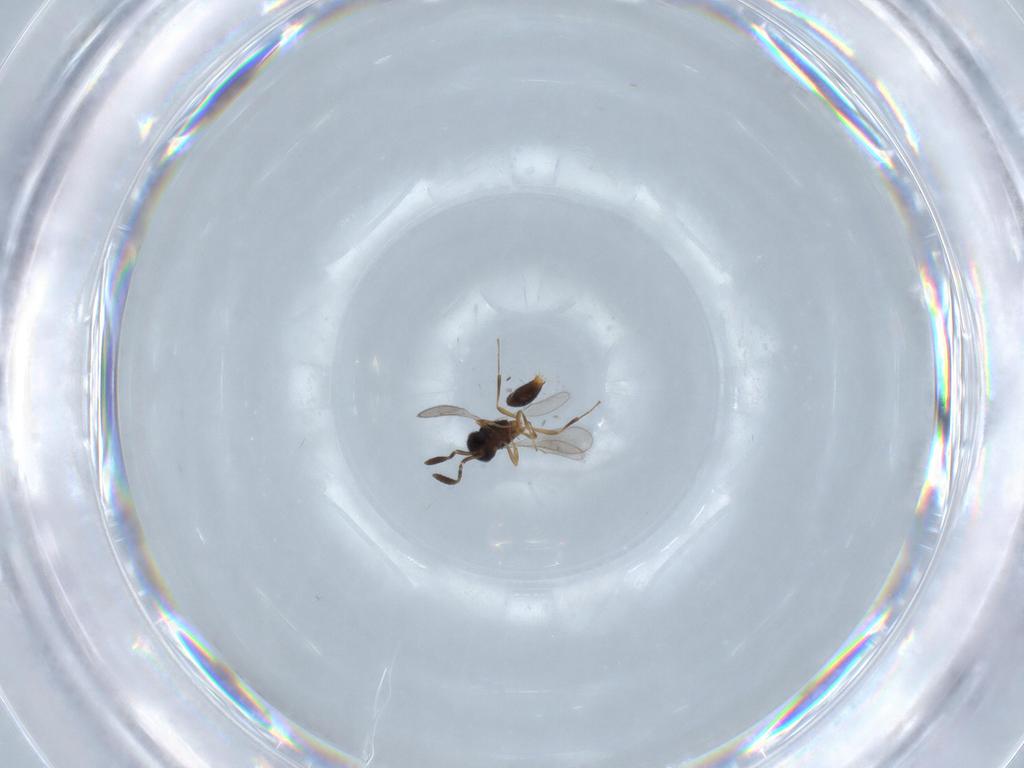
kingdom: Animalia
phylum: Arthropoda
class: Insecta
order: Hymenoptera
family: Scelionidae
